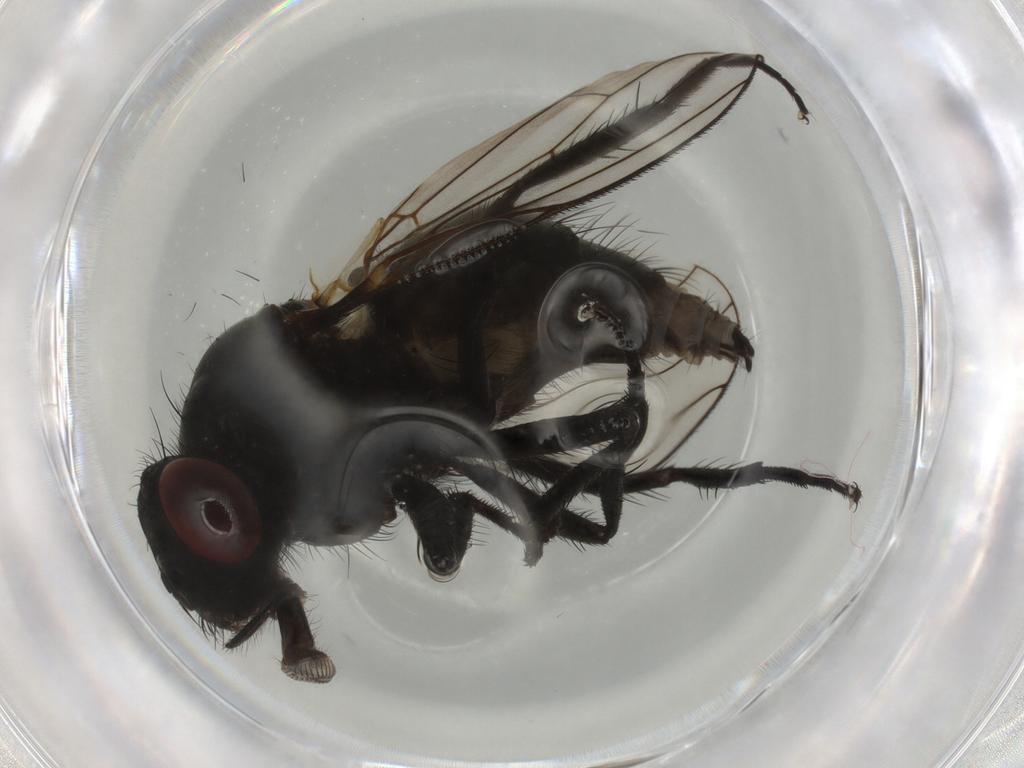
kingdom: Animalia
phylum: Arthropoda
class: Insecta
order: Diptera
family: Muscidae
